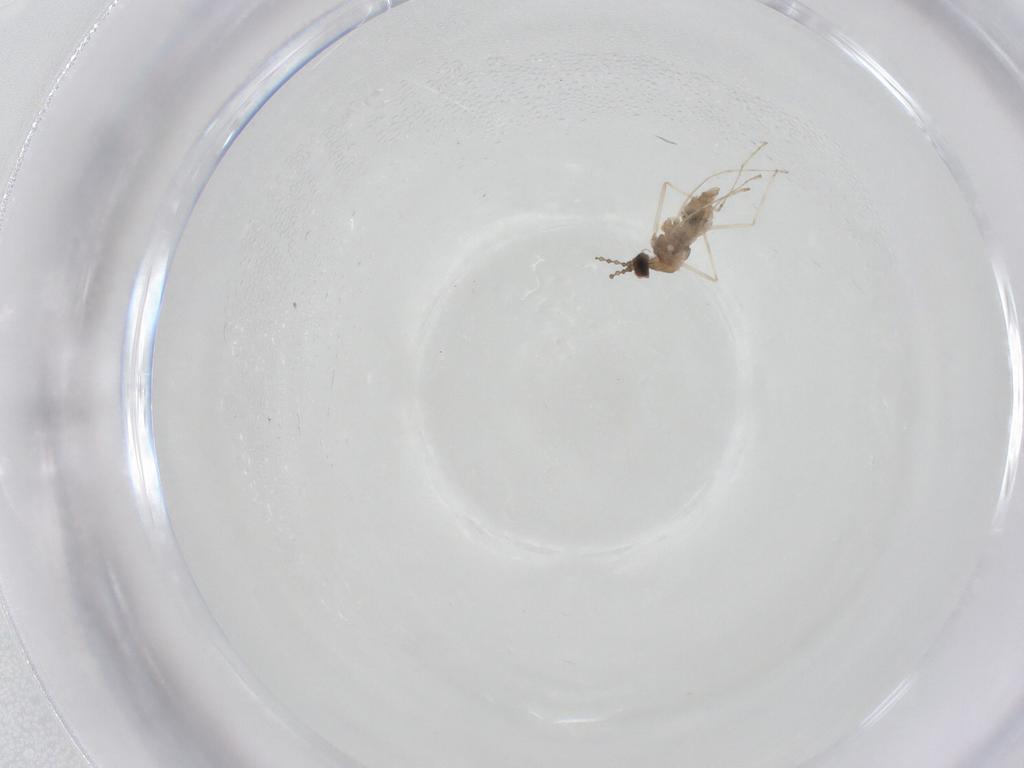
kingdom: Animalia
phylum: Arthropoda
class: Insecta
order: Diptera
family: Cecidomyiidae
